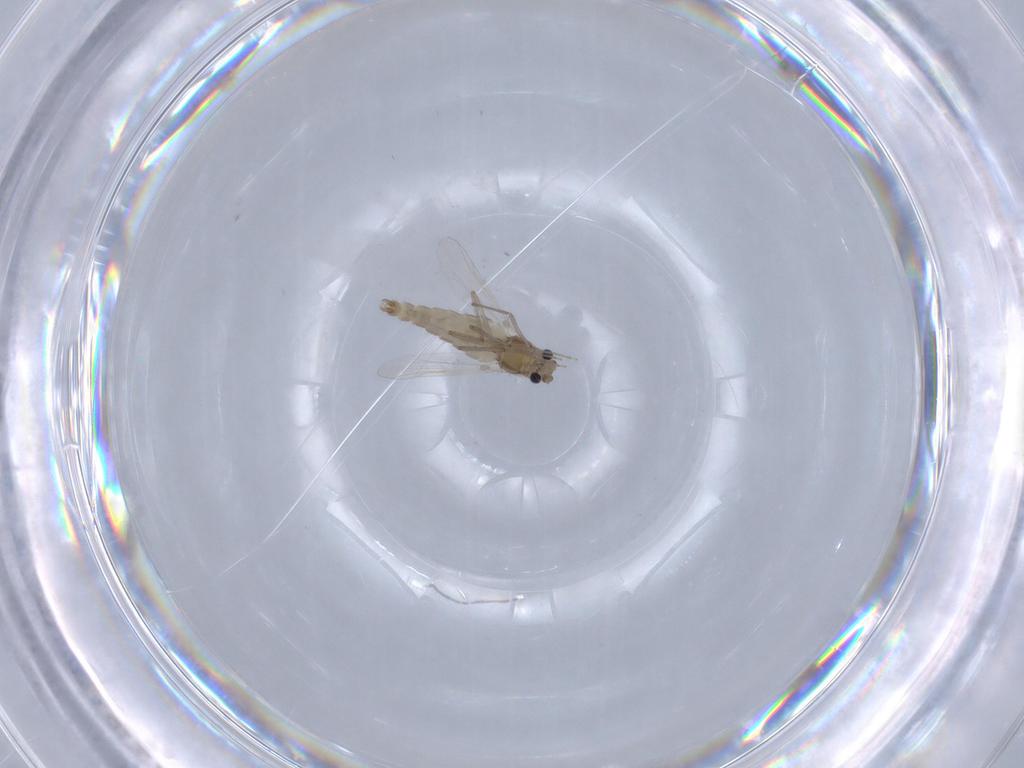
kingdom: Animalia
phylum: Arthropoda
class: Insecta
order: Diptera
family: Chironomidae
